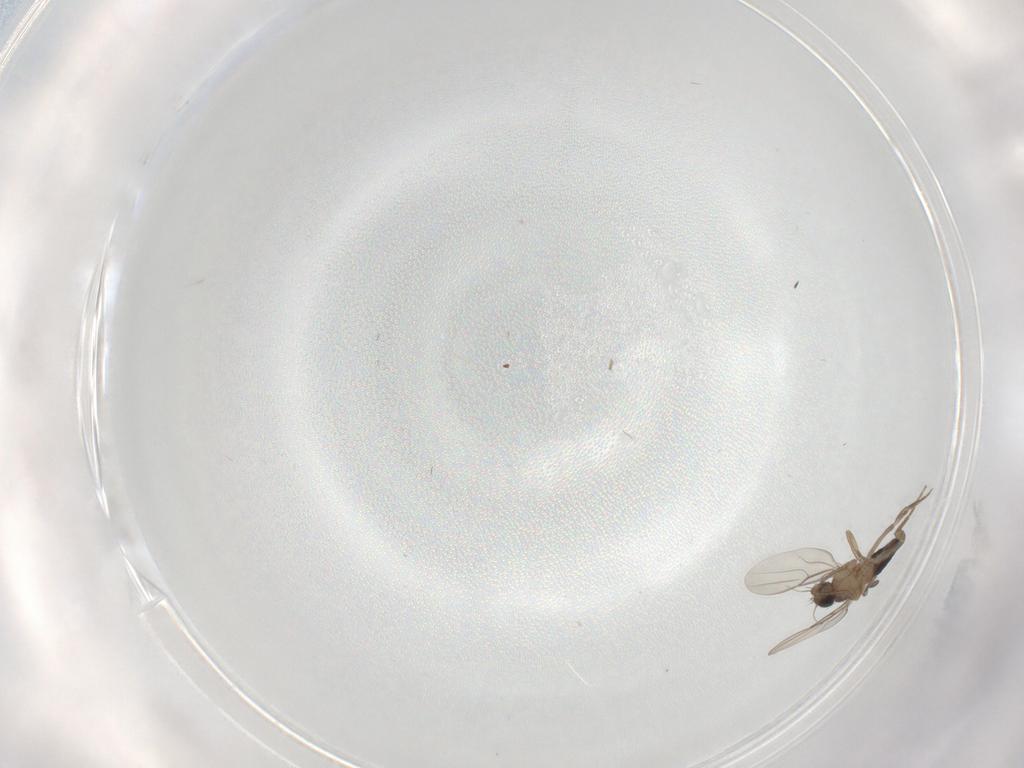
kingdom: Animalia
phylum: Arthropoda
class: Insecta
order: Diptera
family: Phoridae
